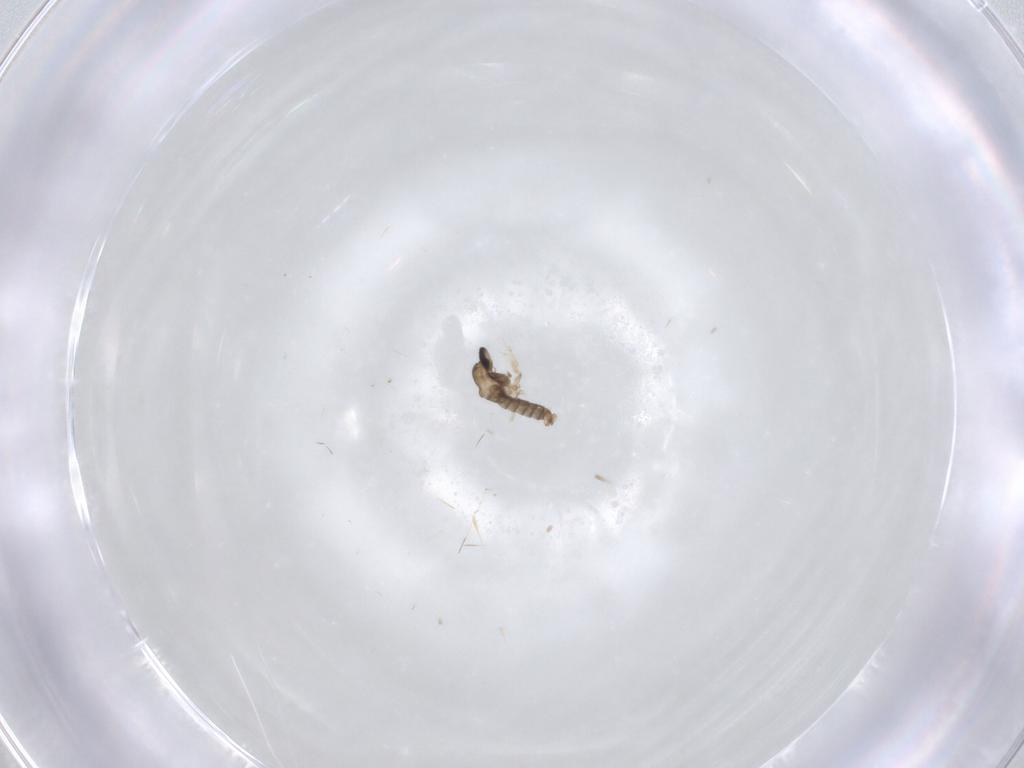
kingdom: Animalia
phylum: Arthropoda
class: Insecta
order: Diptera
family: Cecidomyiidae
